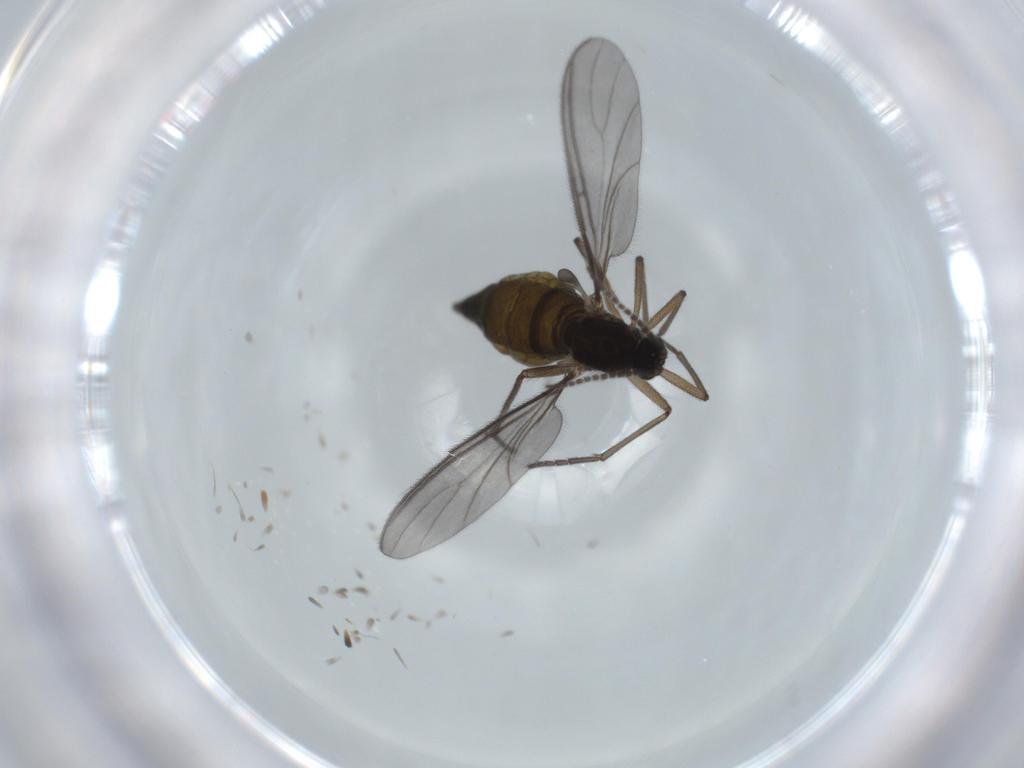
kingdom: Animalia
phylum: Arthropoda
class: Insecta
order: Diptera
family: Sciaridae
